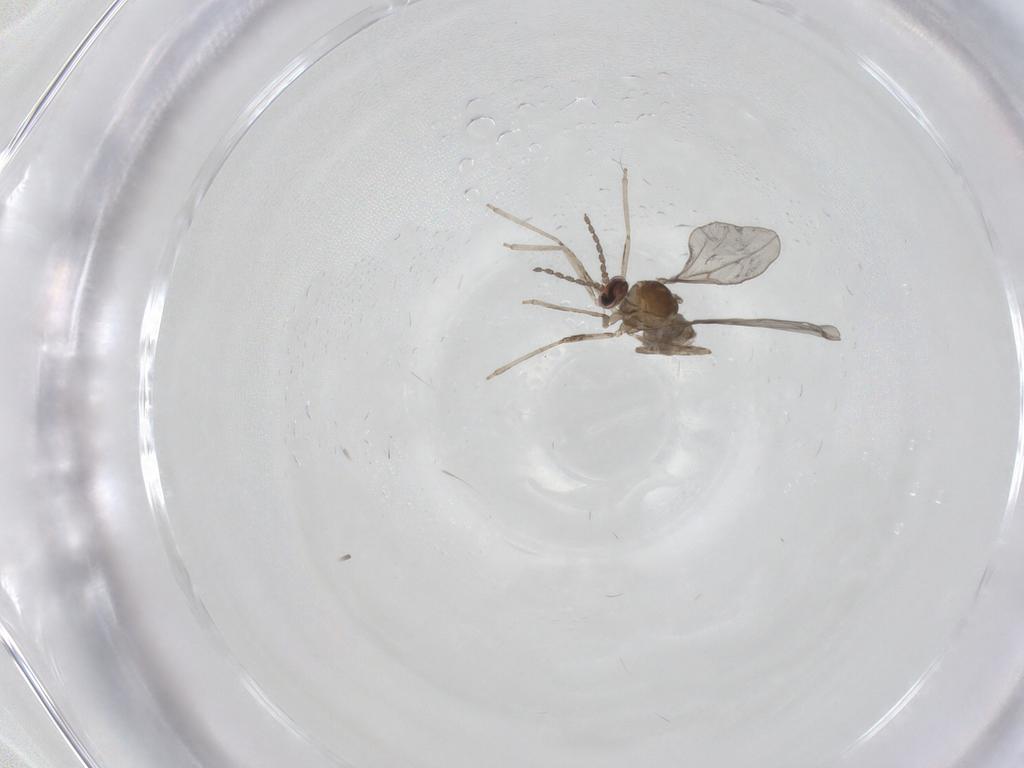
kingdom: Animalia
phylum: Arthropoda
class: Insecta
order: Diptera
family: Cecidomyiidae
